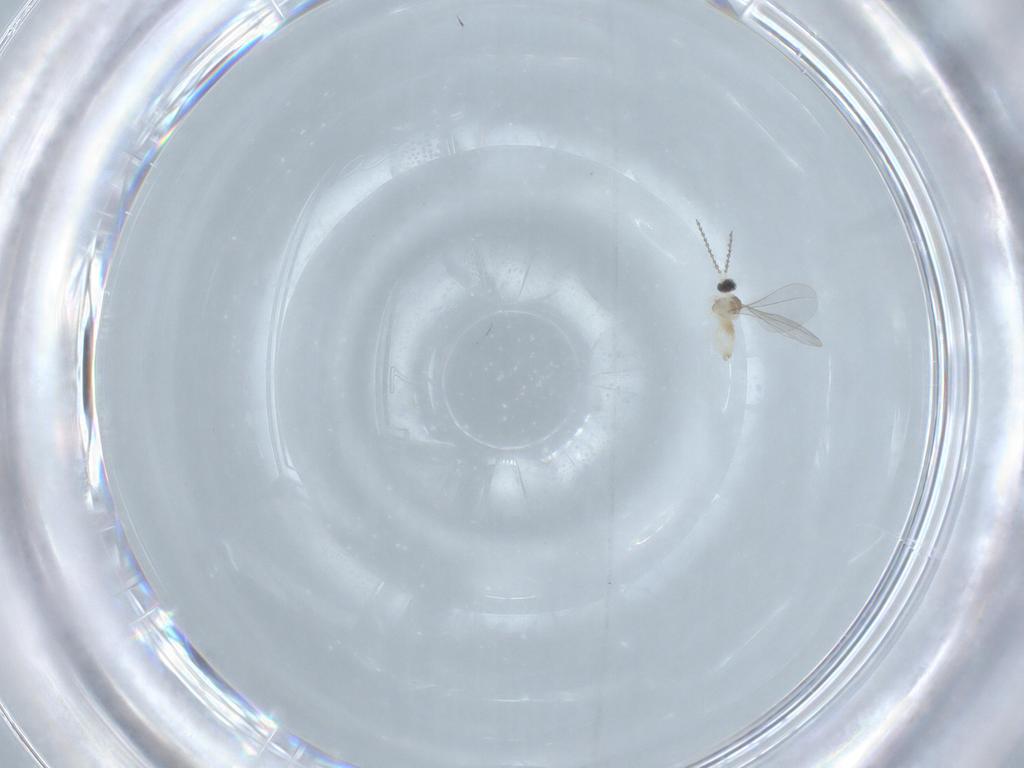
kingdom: Animalia
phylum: Arthropoda
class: Insecta
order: Diptera
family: Cecidomyiidae
